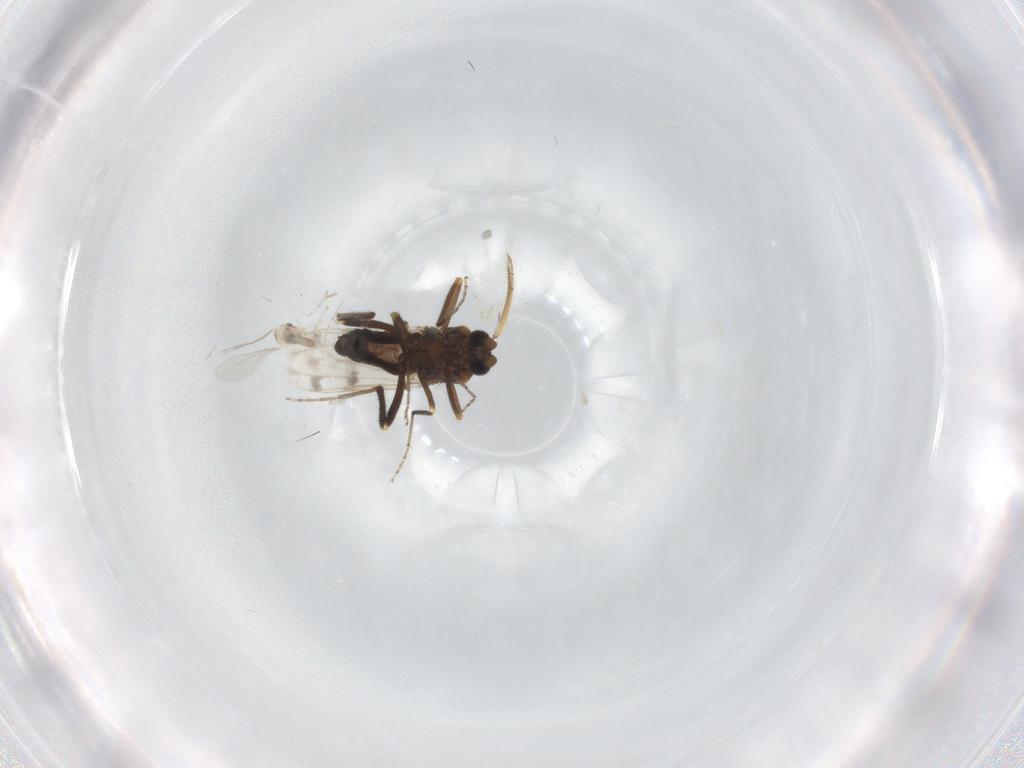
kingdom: Animalia
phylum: Arthropoda
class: Insecta
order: Diptera
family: Ceratopogonidae
